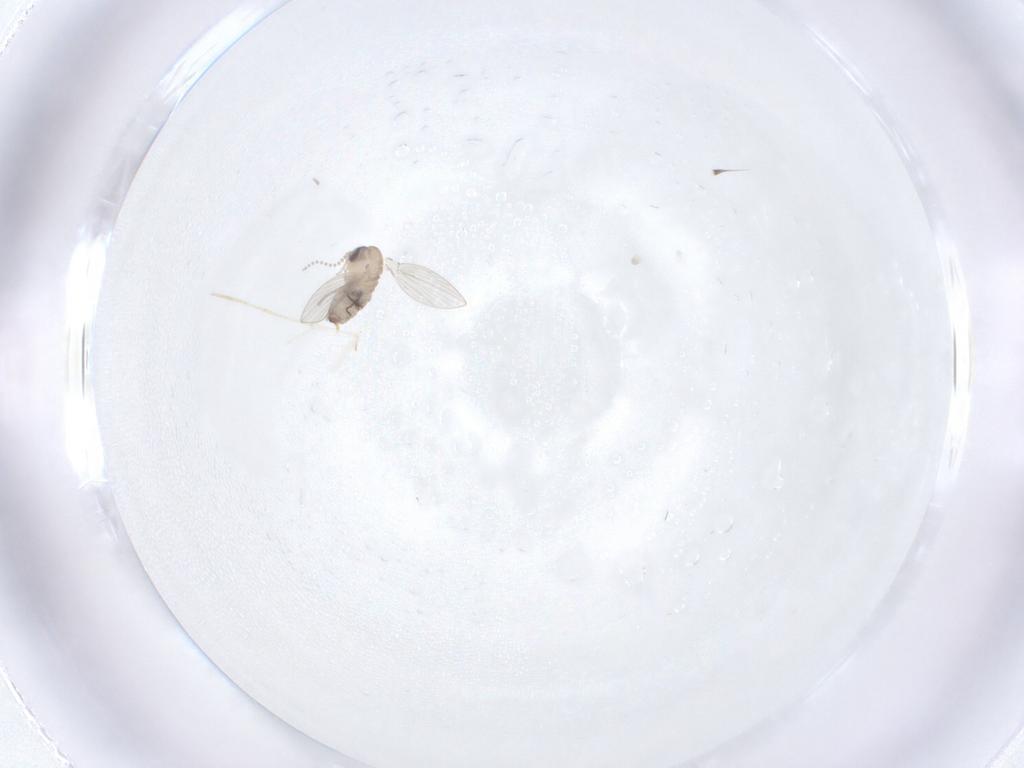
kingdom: Animalia
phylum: Arthropoda
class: Insecta
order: Diptera
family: Psychodidae
